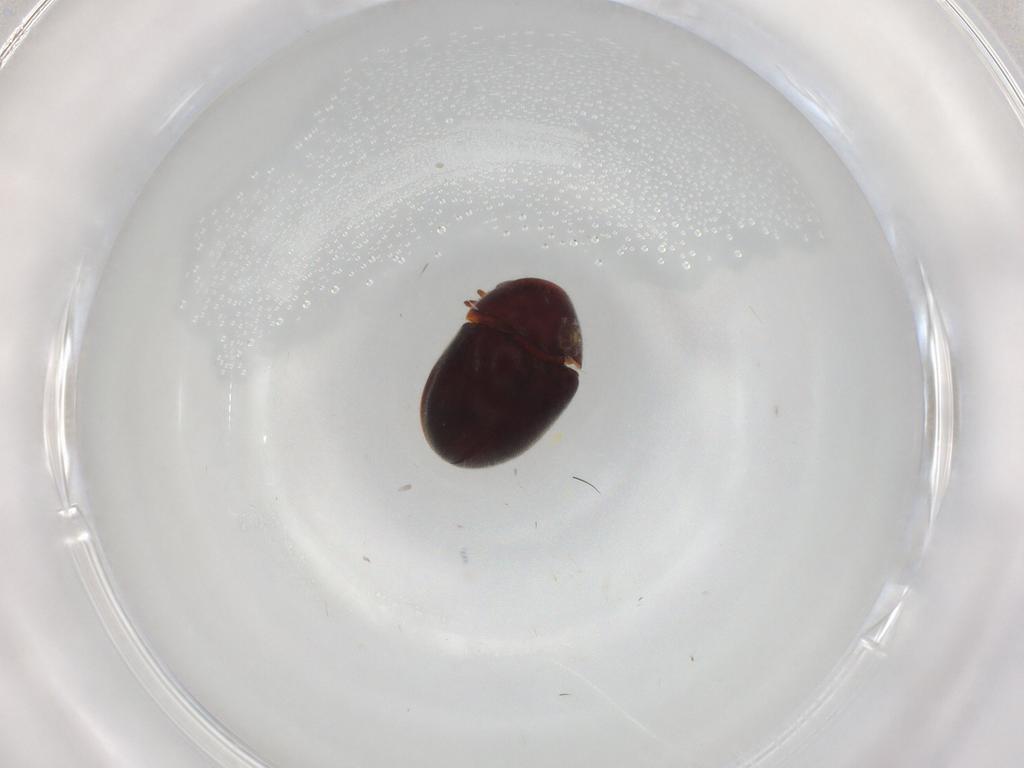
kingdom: Animalia
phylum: Arthropoda
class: Insecta
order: Coleoptera
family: Ptinidae
